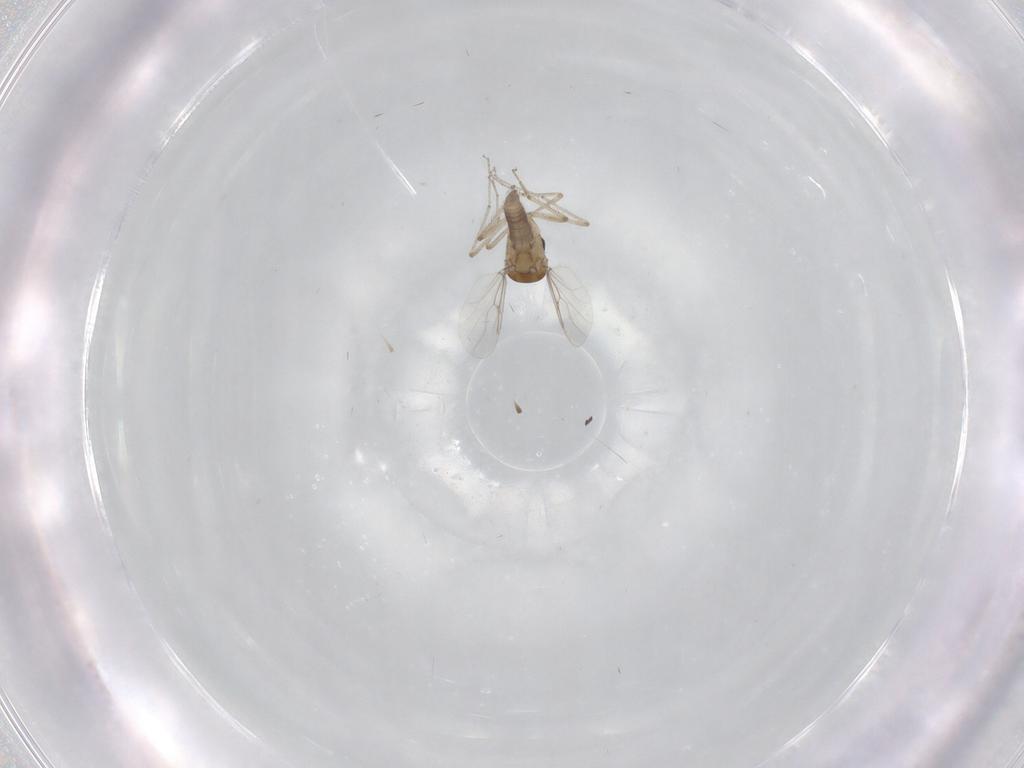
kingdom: Animalia
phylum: Arthropoda
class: Insecta
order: Diptera
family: Ceratopogonidae
